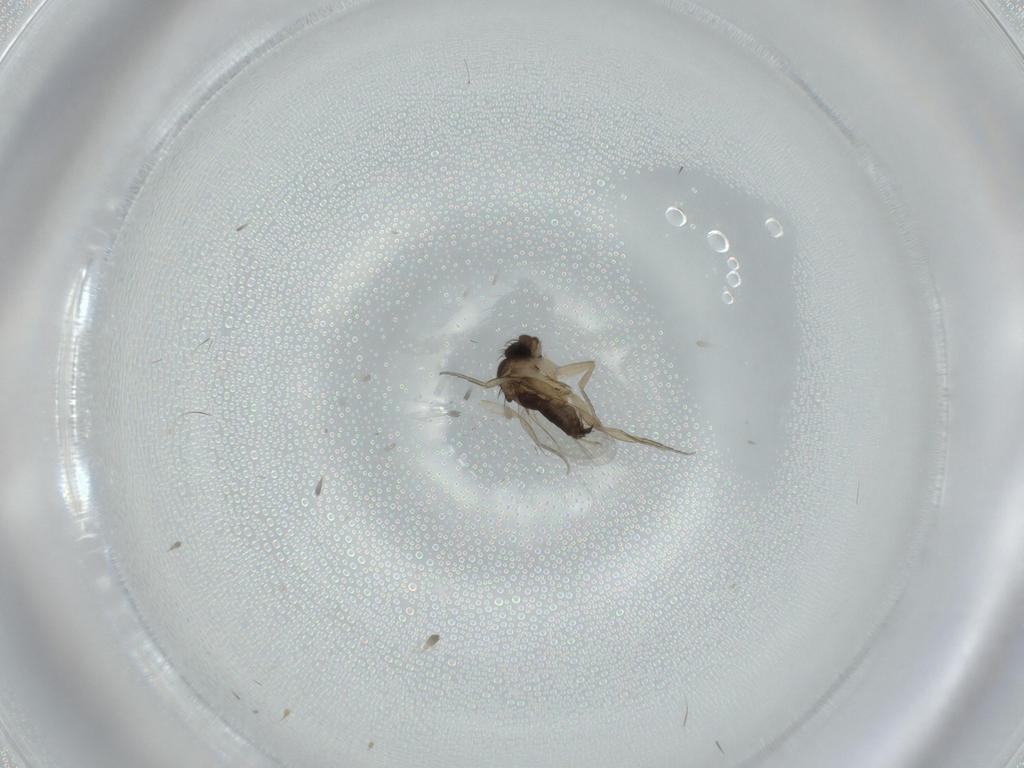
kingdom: Animalia
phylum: Arthropoda
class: Insecta
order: Diptera
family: Phoridae
